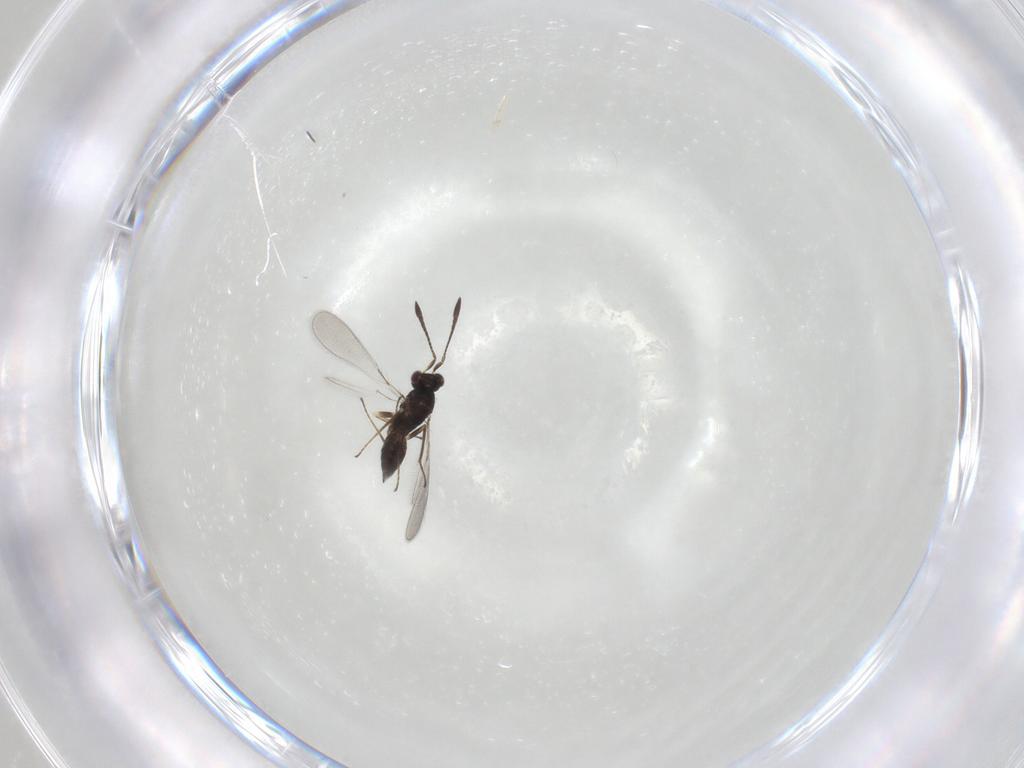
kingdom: Animalia
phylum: Arthropoda
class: Insecta
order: Hymenoptera
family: Mymaridae
